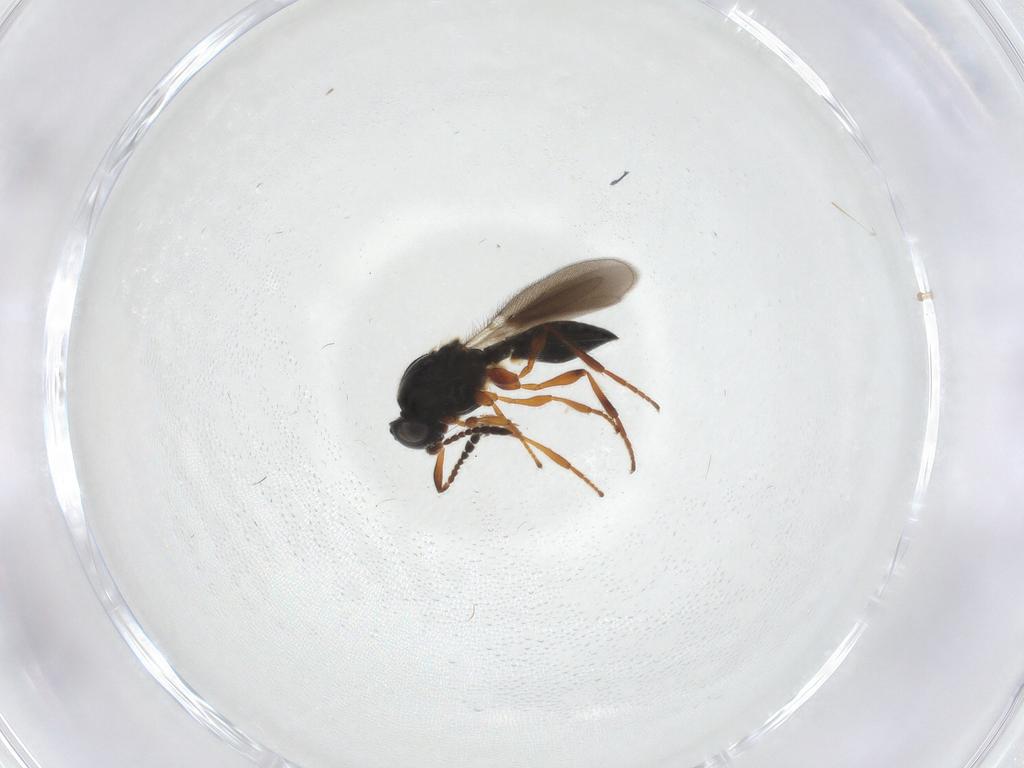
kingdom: Animalia
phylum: Arthropoda
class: Insecta
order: Hymenoptera
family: Platygastridae
